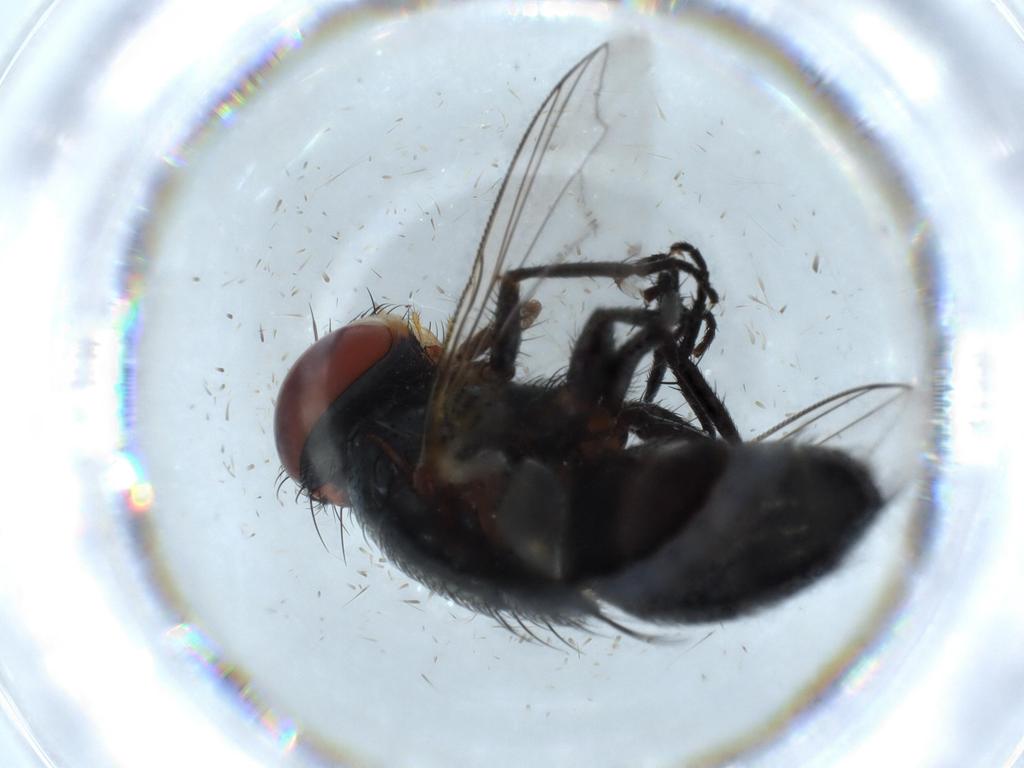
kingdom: Animalia
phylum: Arthropoda
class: Insecta
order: Diptera
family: Sarcophagidae
